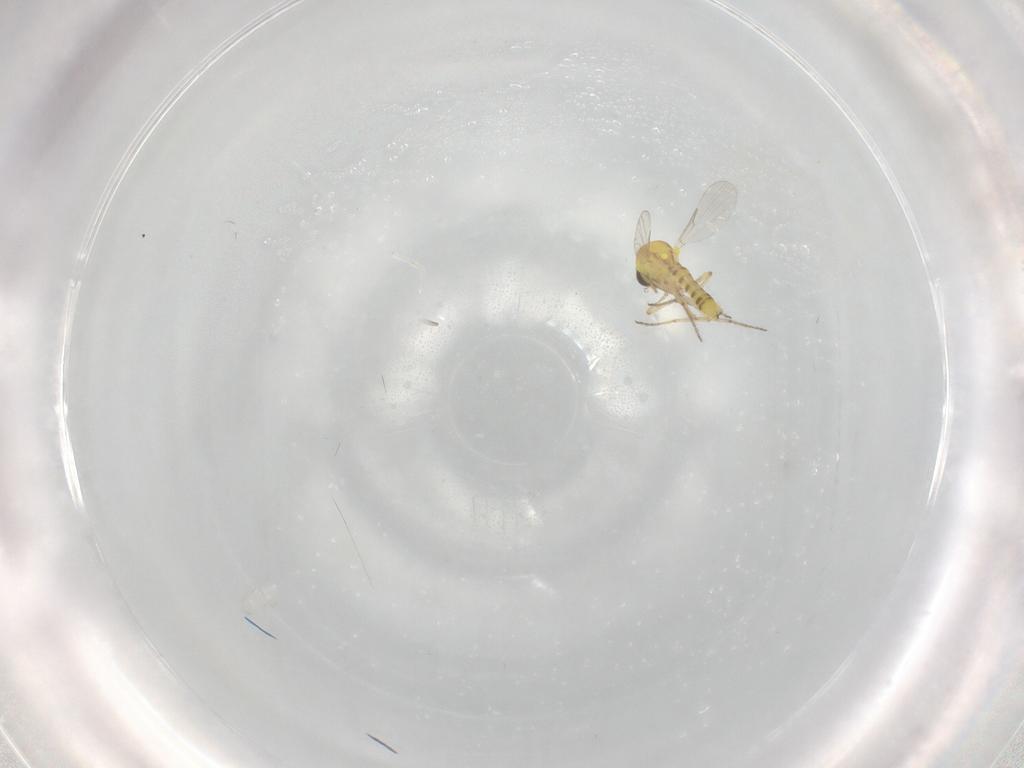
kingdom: Animalia
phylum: Arthropoda
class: Insecta
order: Diptera
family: Ceratopogonidae
